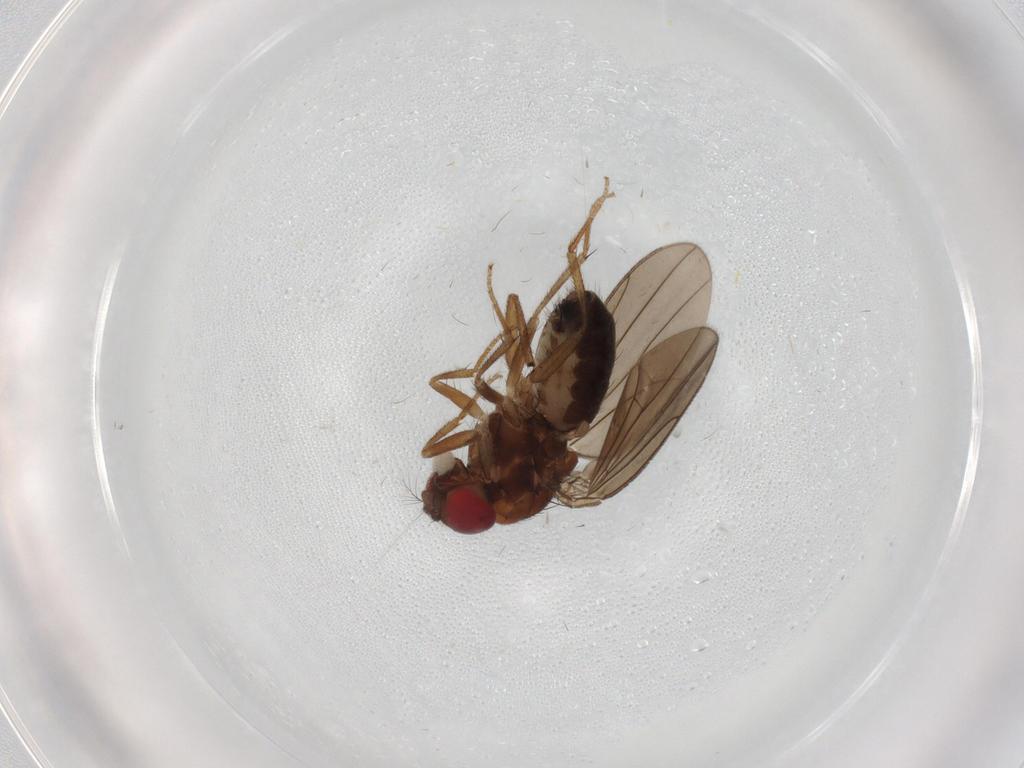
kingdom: Animalia
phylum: Arthropoda
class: Insecta
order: Diptera
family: Drosophilidae
